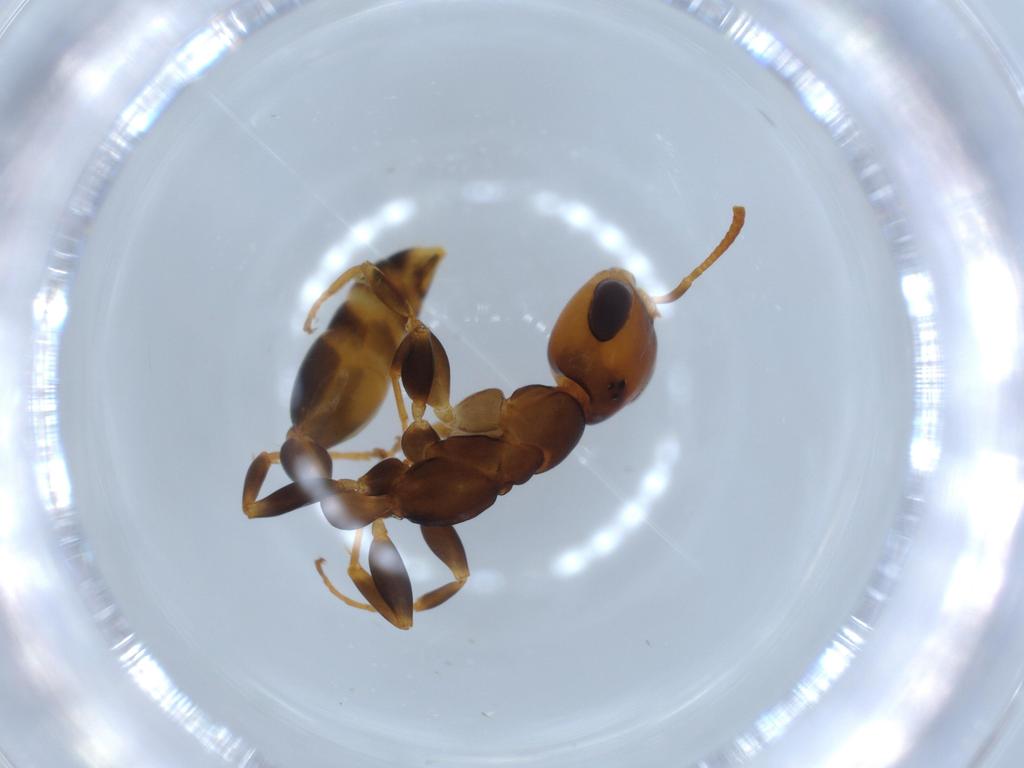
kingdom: Animalia
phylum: Arthropoda
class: Insecta
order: Hymenoptera
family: Formicidae
